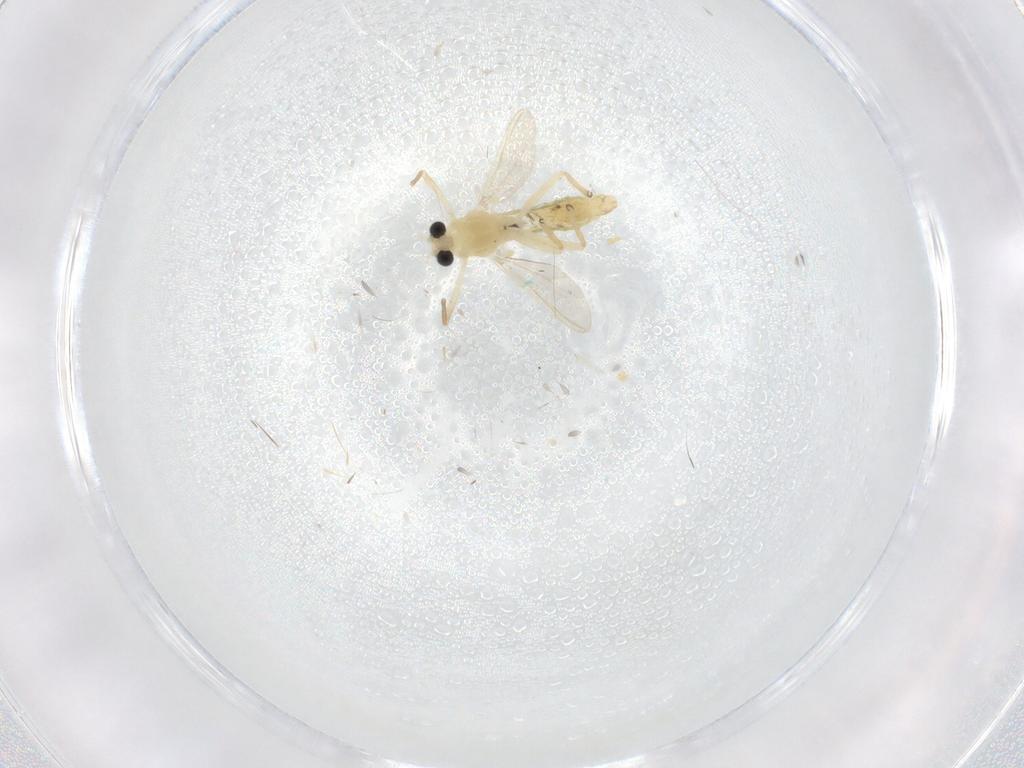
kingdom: Animalia
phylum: Arthropoda
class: Insecta
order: Diptera
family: Chironomidae
